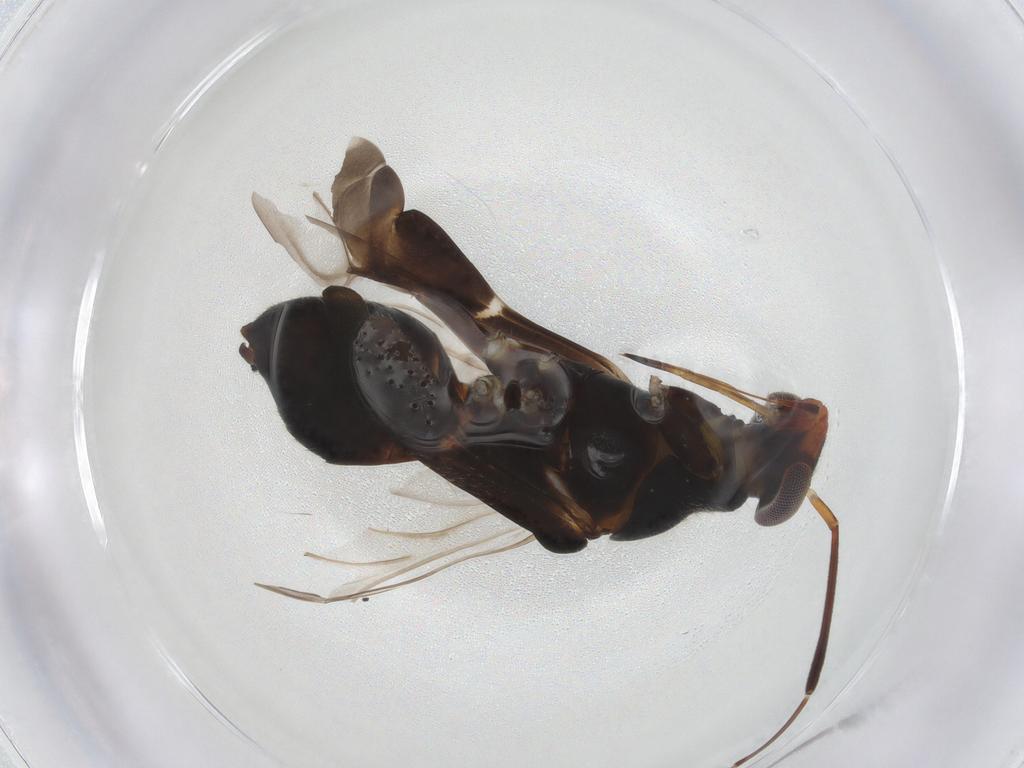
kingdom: Animalia
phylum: Arthropoda
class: Insecta
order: Hemiptera
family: Miridae
